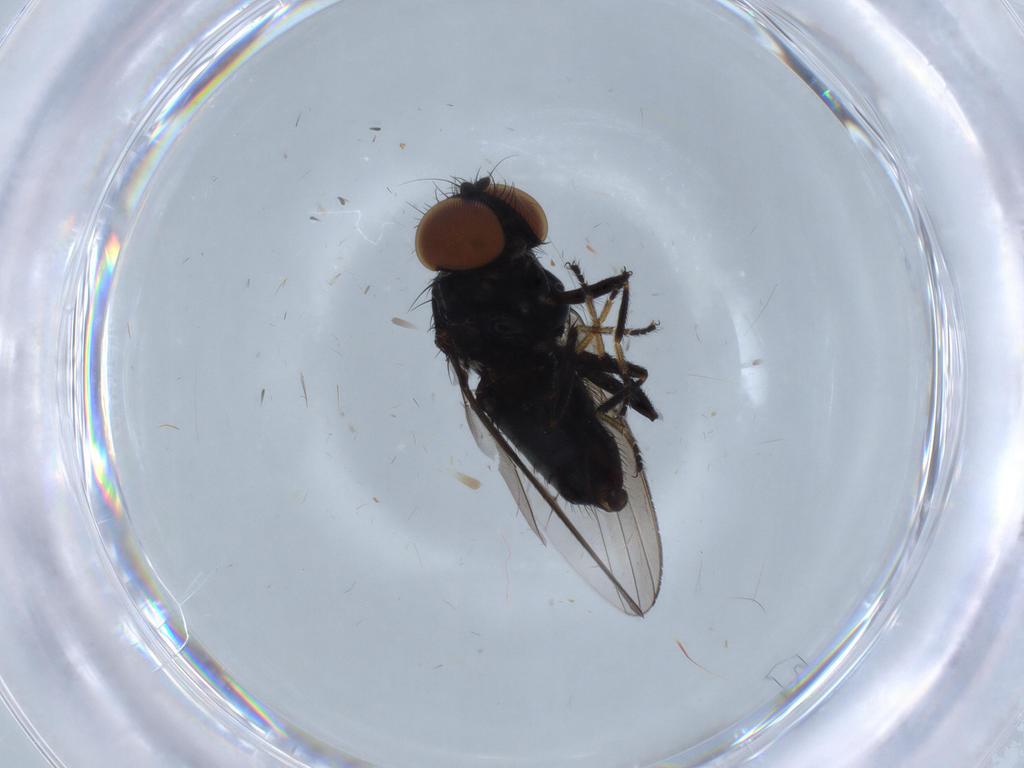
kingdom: Animalia
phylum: Arthropoda
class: Insecta
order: Diptera
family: Milichiidae
